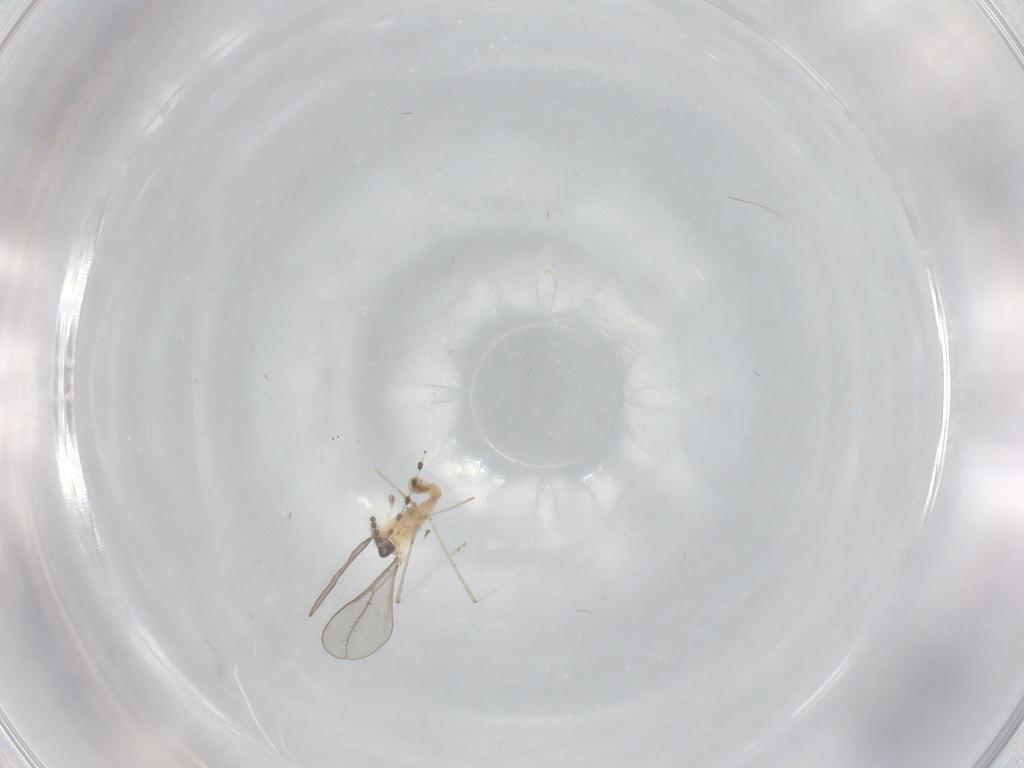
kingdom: Animalia
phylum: Arthropoda
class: Insecta
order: Diptera
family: Cecidomyiidae
